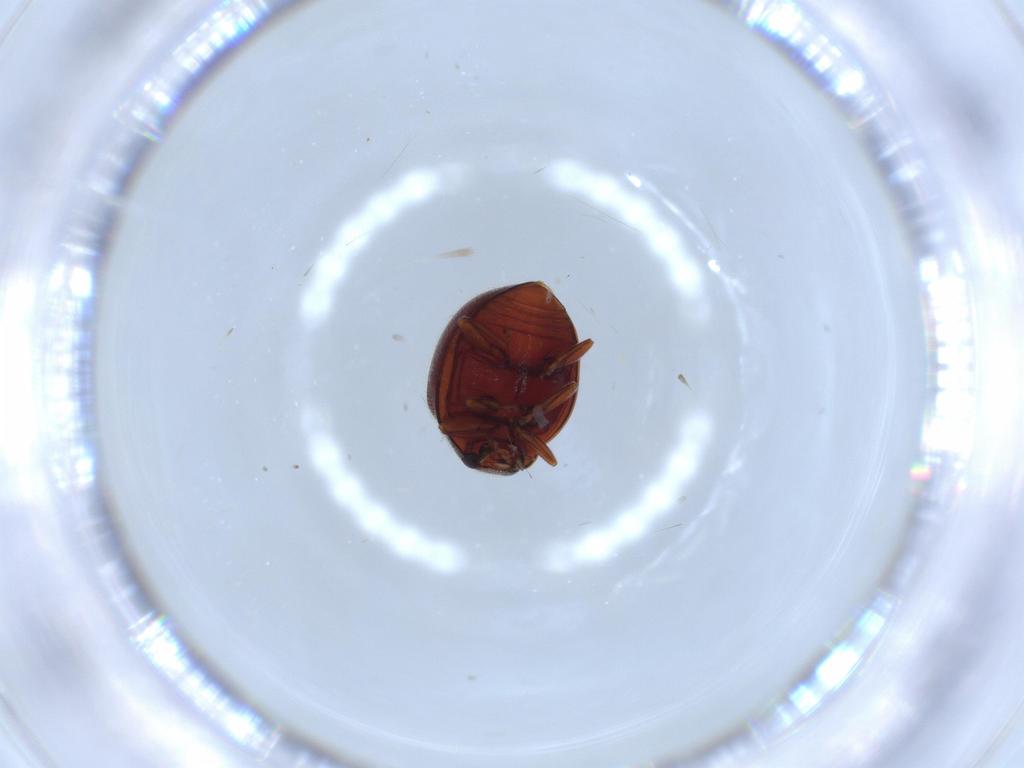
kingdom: Animalia
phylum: Arthropoda
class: Insecta
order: Coleoptera
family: Coccinellidae
